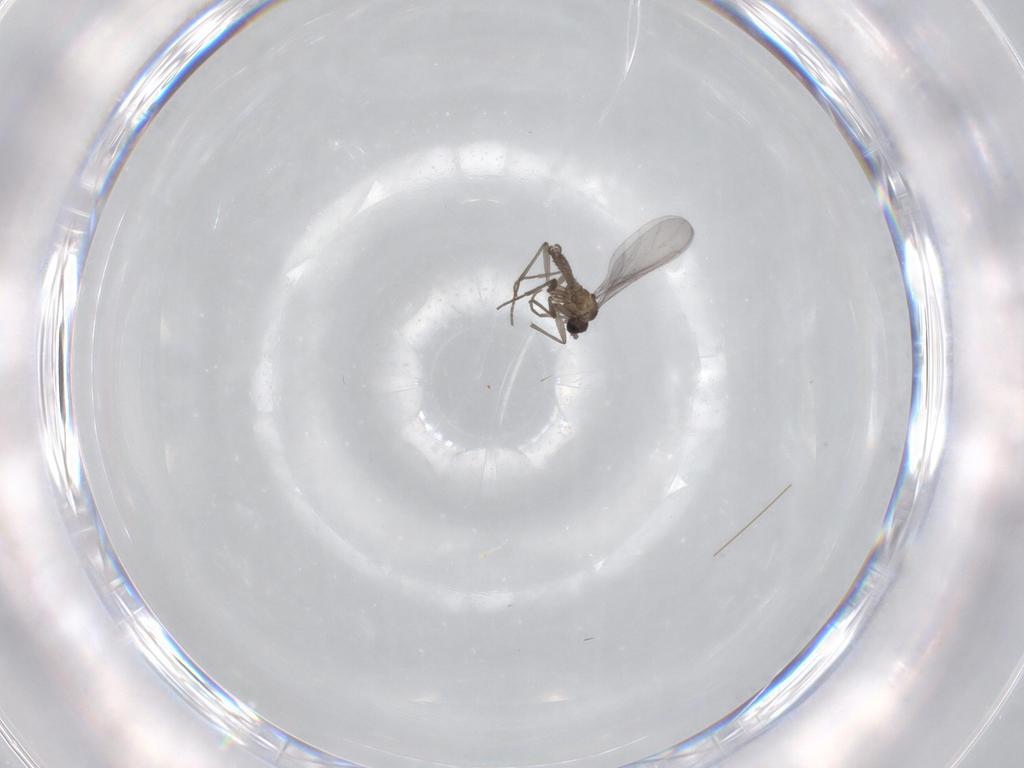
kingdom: Animalia
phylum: Arthropoda
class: Insecta
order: Diptera
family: Sciaridae
